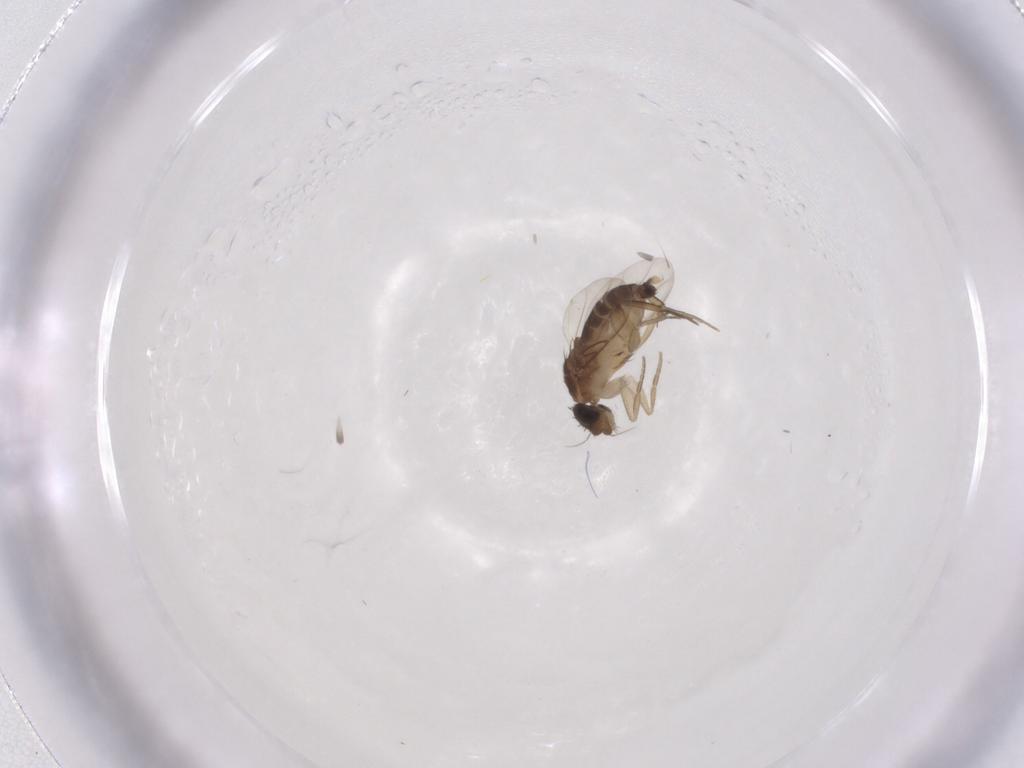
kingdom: Animalia
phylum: Arthropoda
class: Insecta
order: Diptera
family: Phoridae
